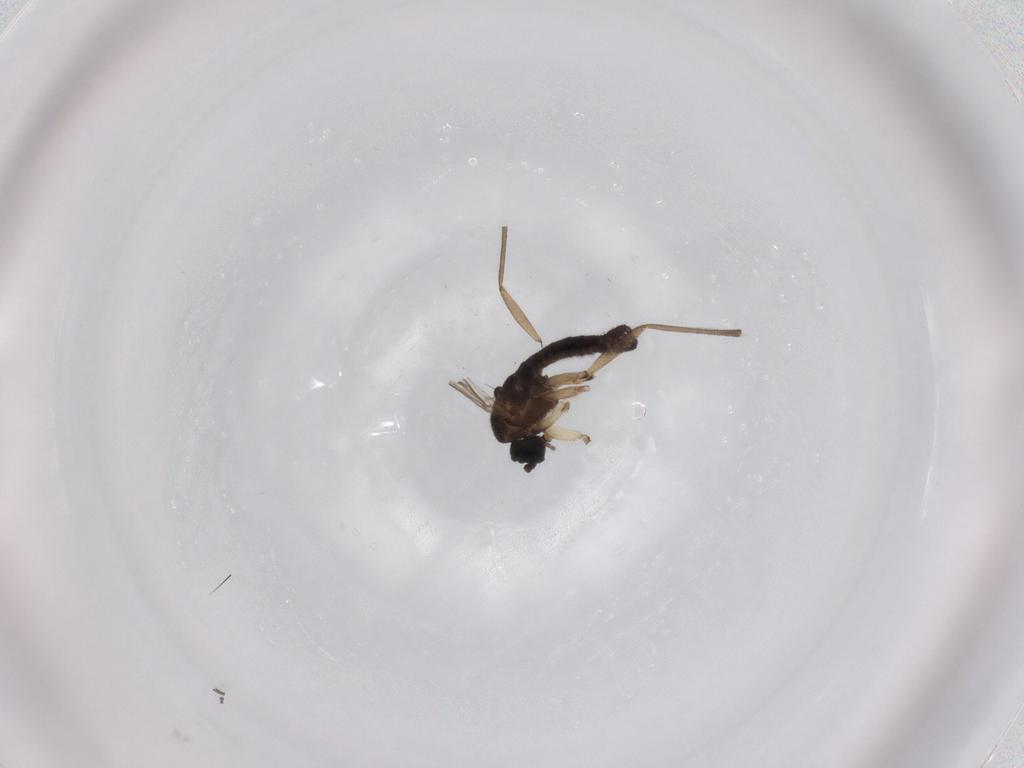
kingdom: Animalia
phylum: Arthropoda
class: Insecta
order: Diptera
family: Sciaridae
